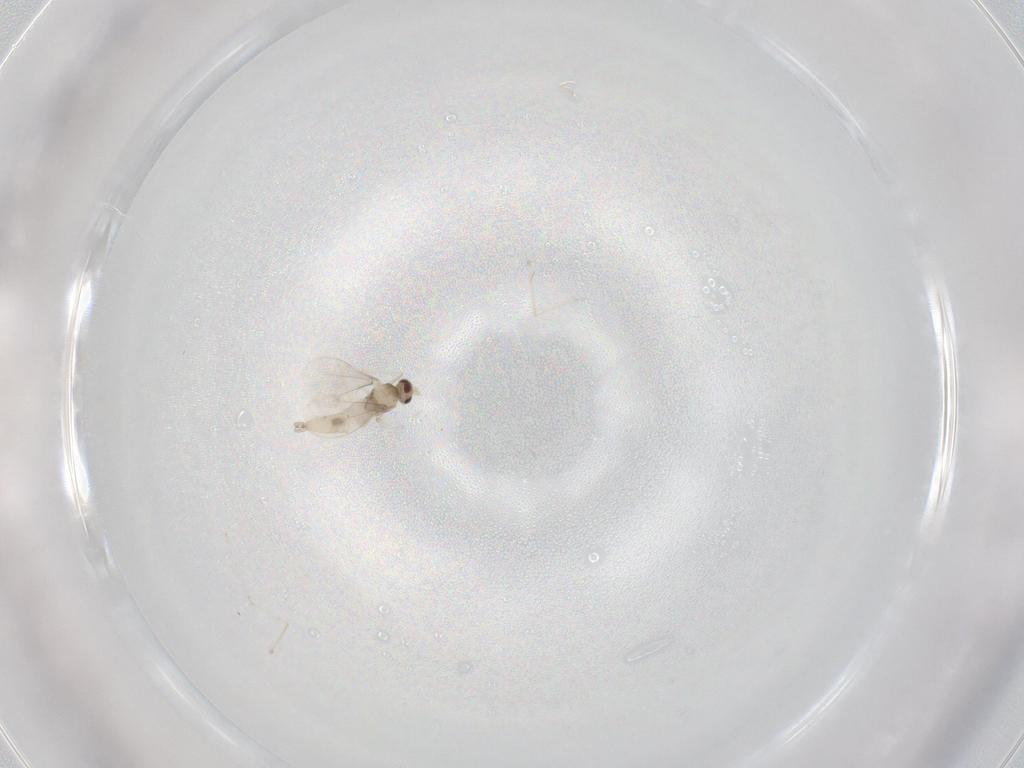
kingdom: Animalia
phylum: Arthropoda
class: Insecta
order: Diptera
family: Cecidomyiidae
